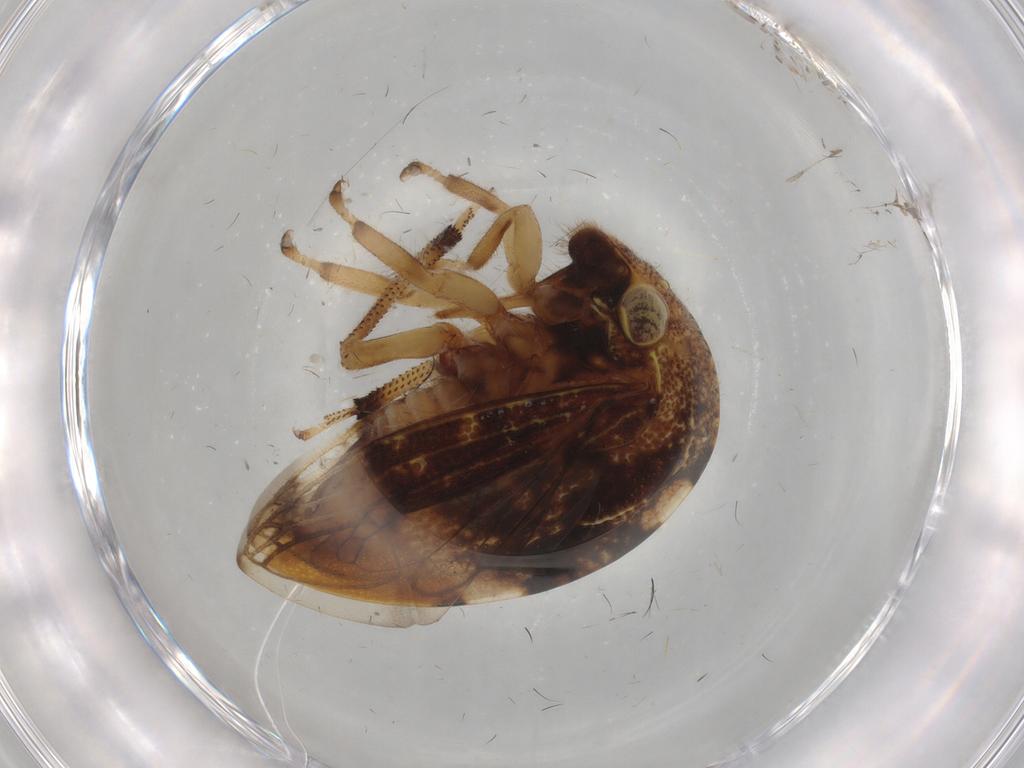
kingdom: Animalia
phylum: Arthropoda
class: Insecta
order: Hemiptera
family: Membracidae
